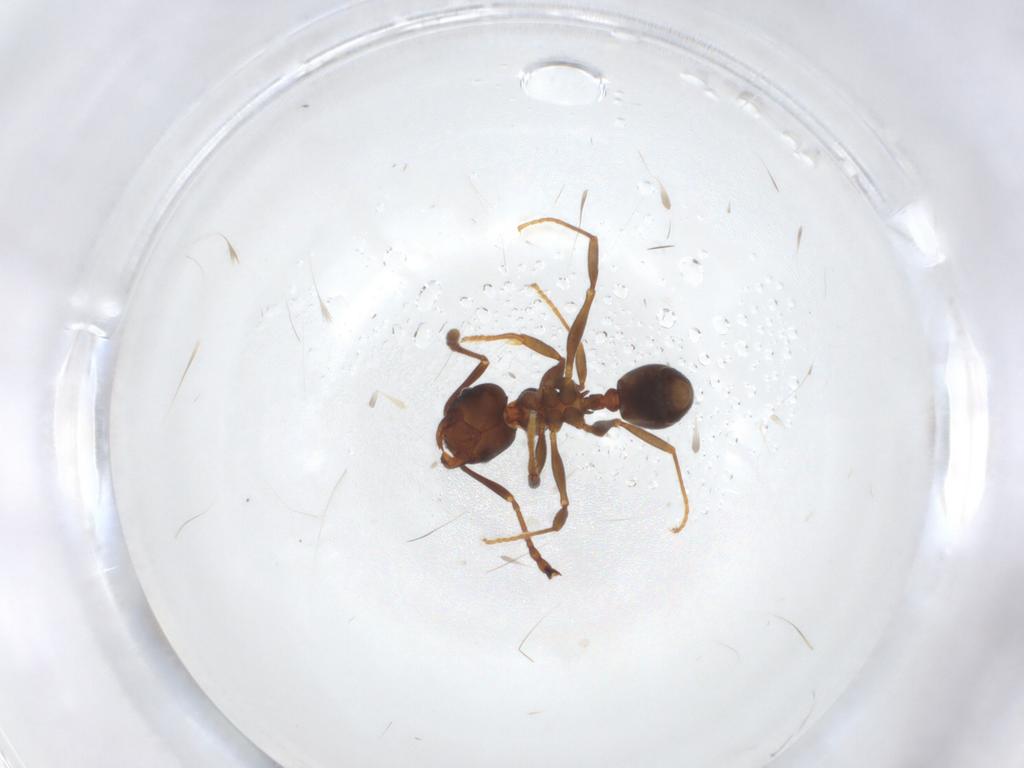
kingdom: Animalia
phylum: Arthropoda
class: Insecta
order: Hymenoptera
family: Formicidae
